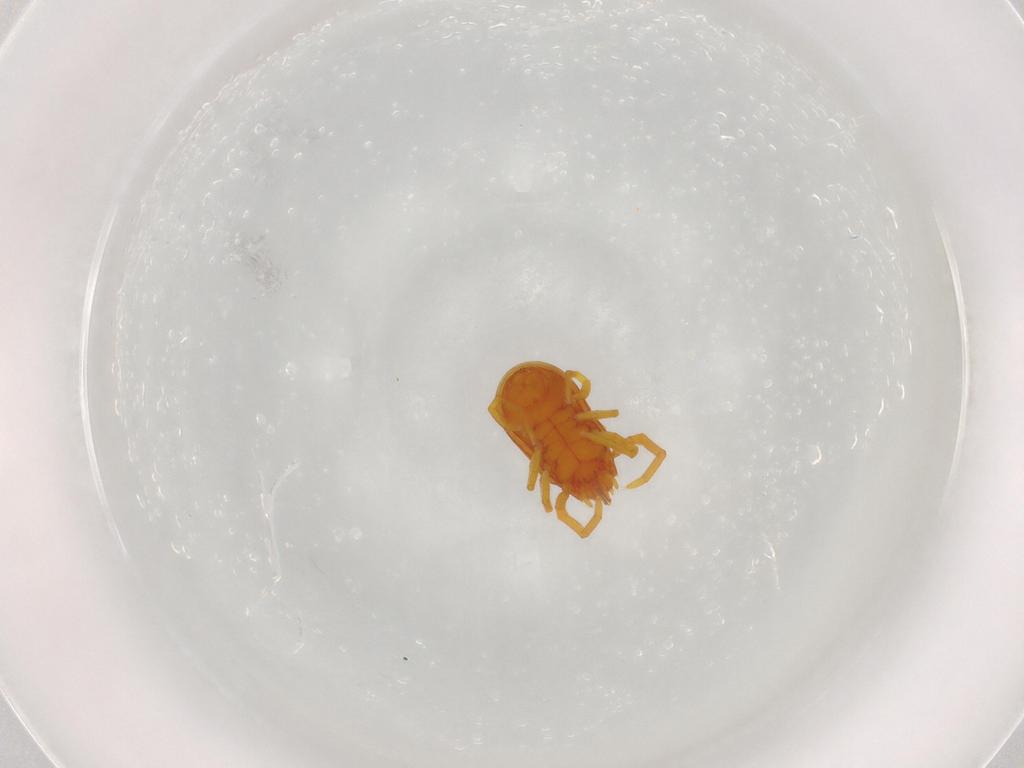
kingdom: Animalia
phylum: Arthropoda
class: Arachnida
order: Trombidiformes
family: Labidostommidae
